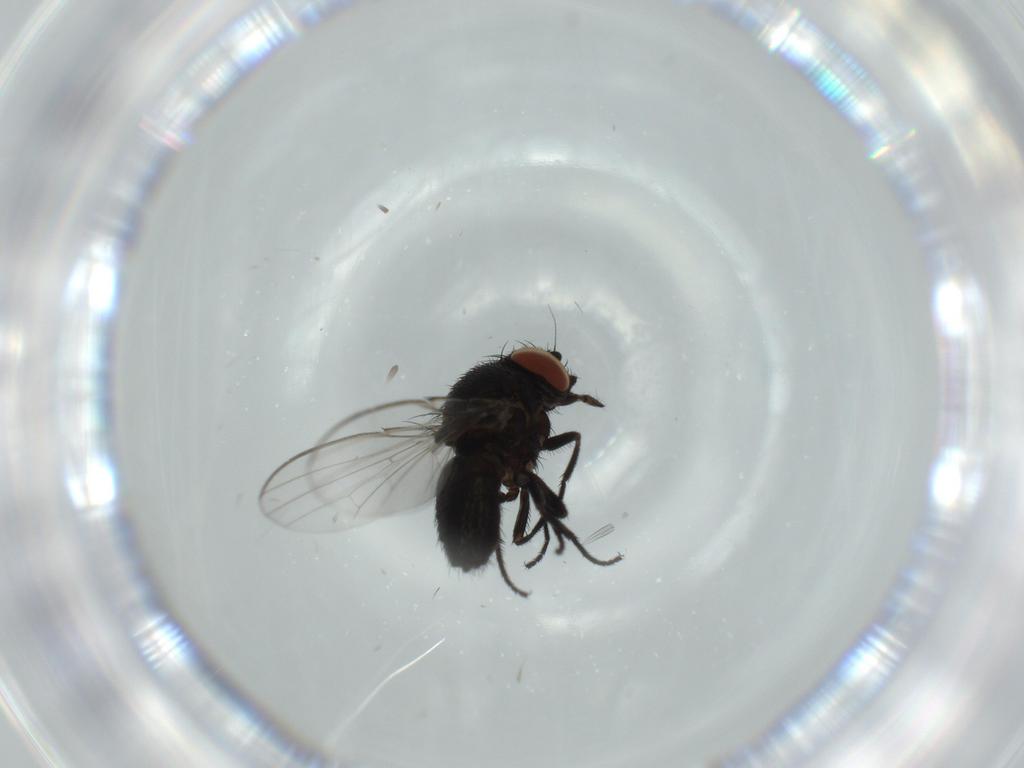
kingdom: Animalia
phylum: Arthropoda
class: Insecta
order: Diptera
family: Milichiidae
